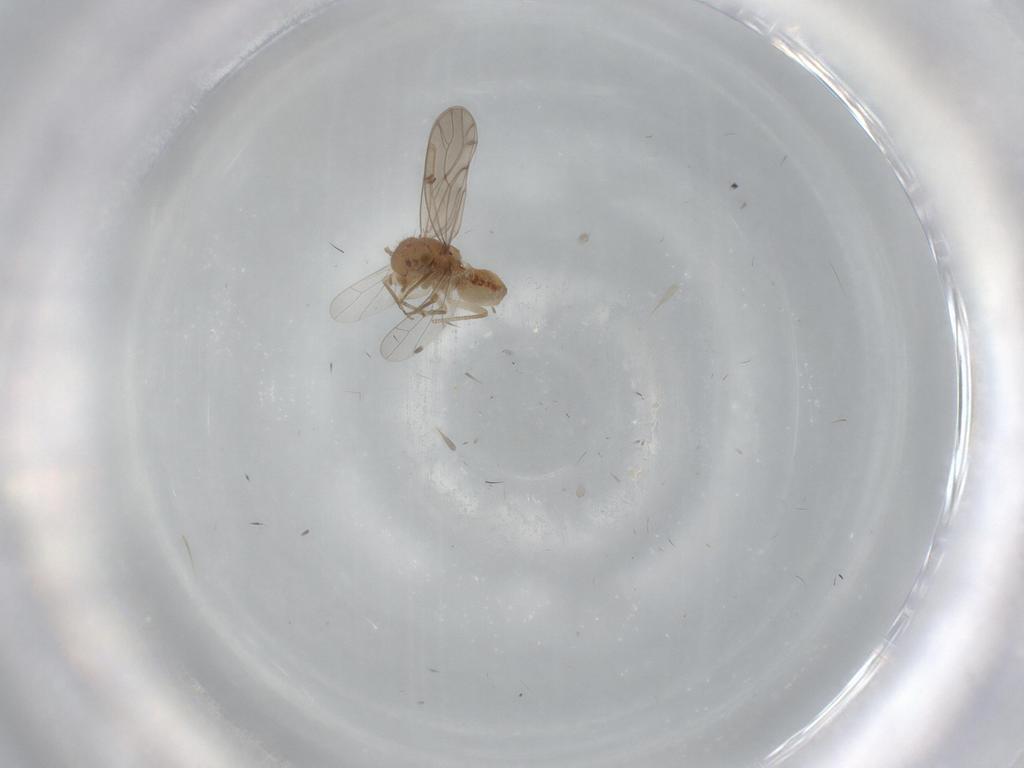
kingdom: Animalia
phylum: Arthropoda
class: Insecta
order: Psocodea
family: Ectopsocidae
